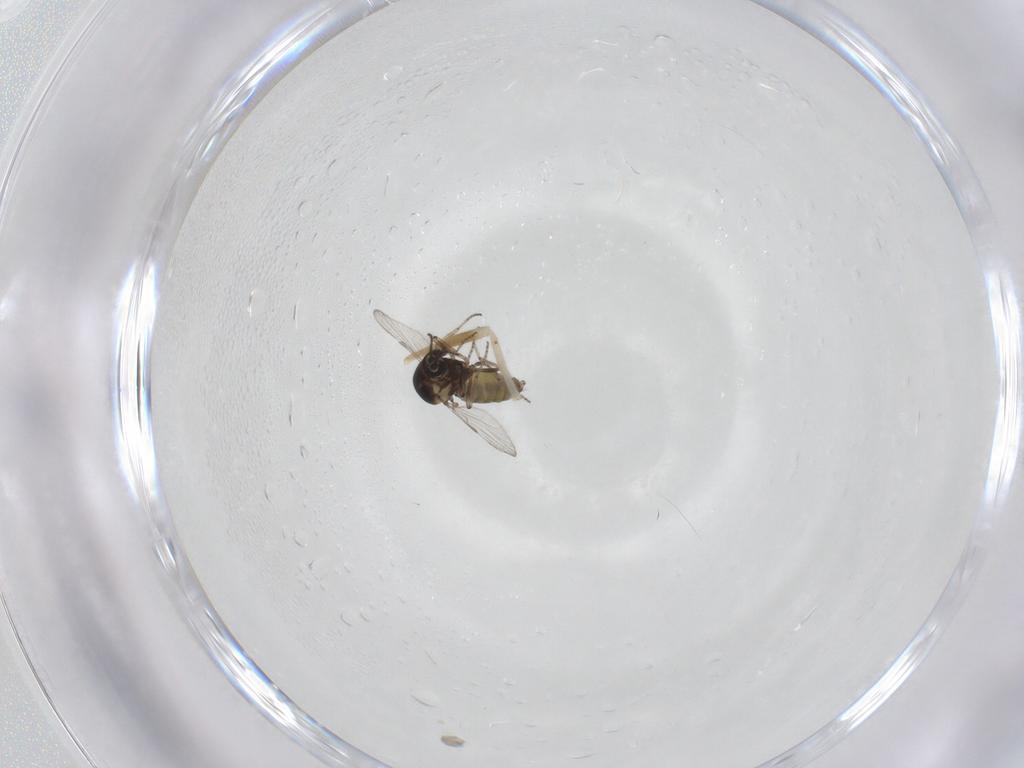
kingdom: Animalia
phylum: Arthropoda
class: Insecta
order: Diptera
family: Ceratopogonidae
